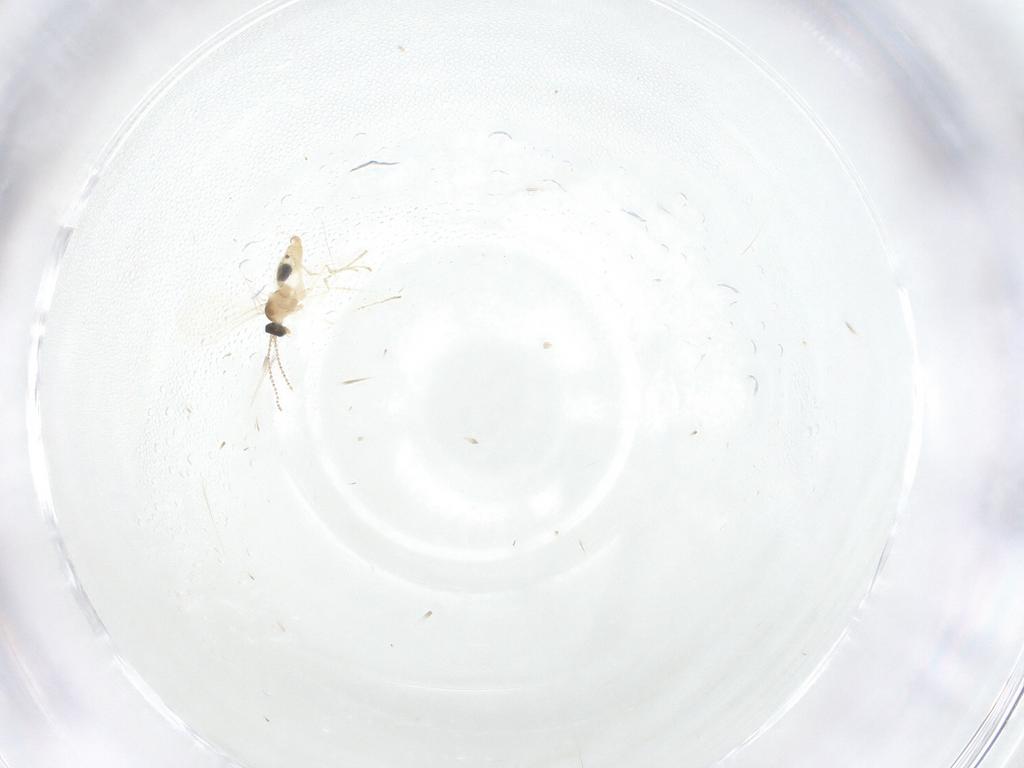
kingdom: Animalia
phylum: Arthropoda
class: Insecta
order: Diptera
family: Cecidomyiidae
